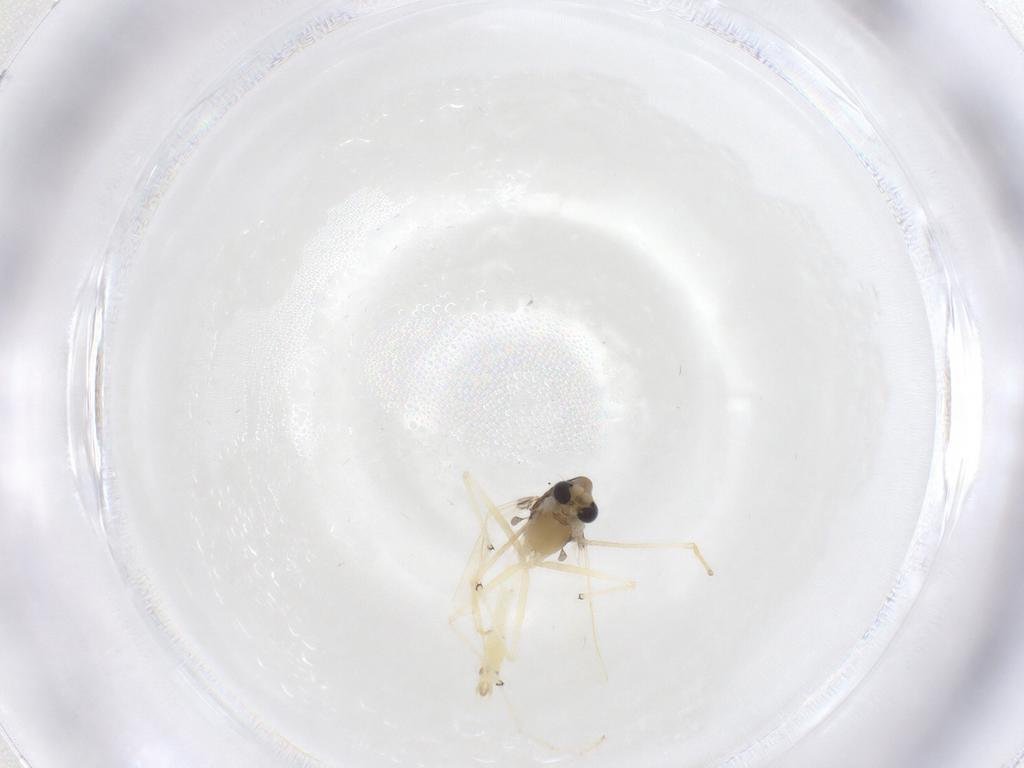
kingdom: Animalia
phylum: Arthropoda
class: Insecta
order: Diptera
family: Chironomidae
